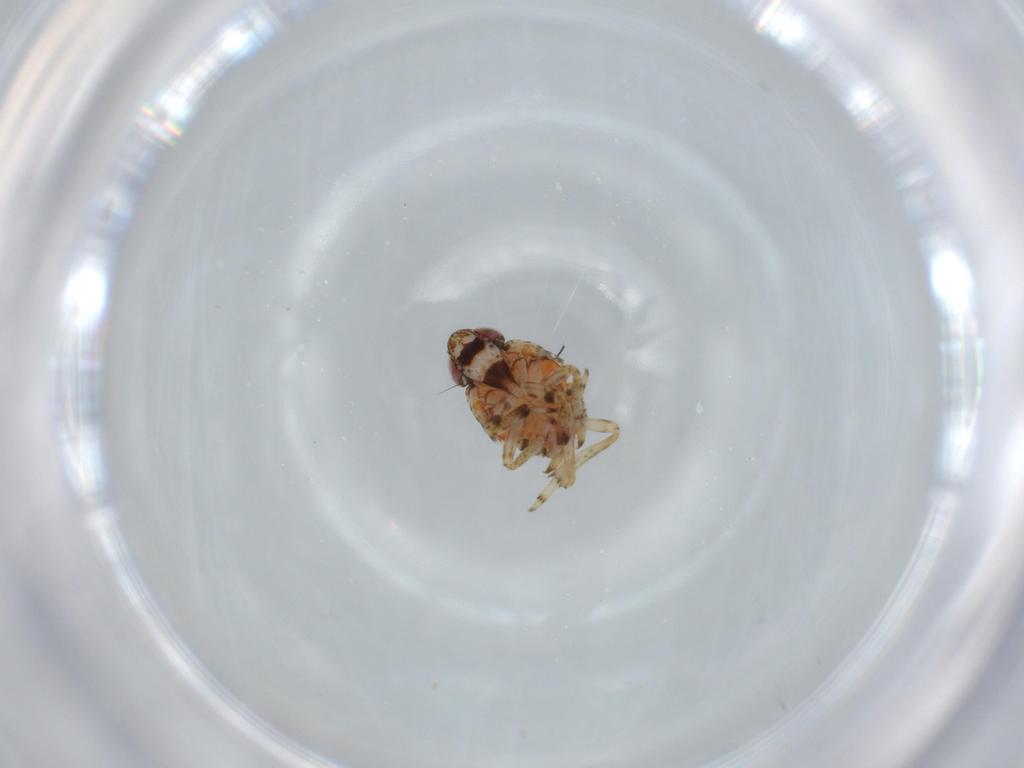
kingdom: Animalia
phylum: Arthropoda
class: Insecta
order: Hemiptera
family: Issidae
